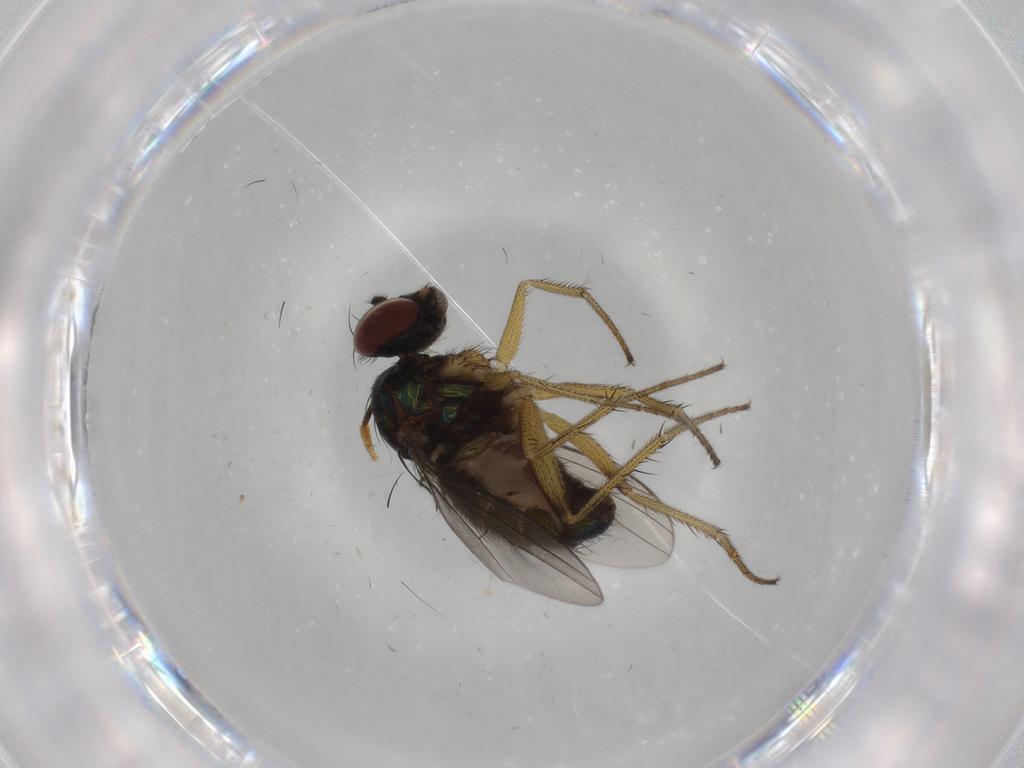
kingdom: Animalia
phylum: Arthropoda
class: Insecta
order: Diptera
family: Dolichopodidae
